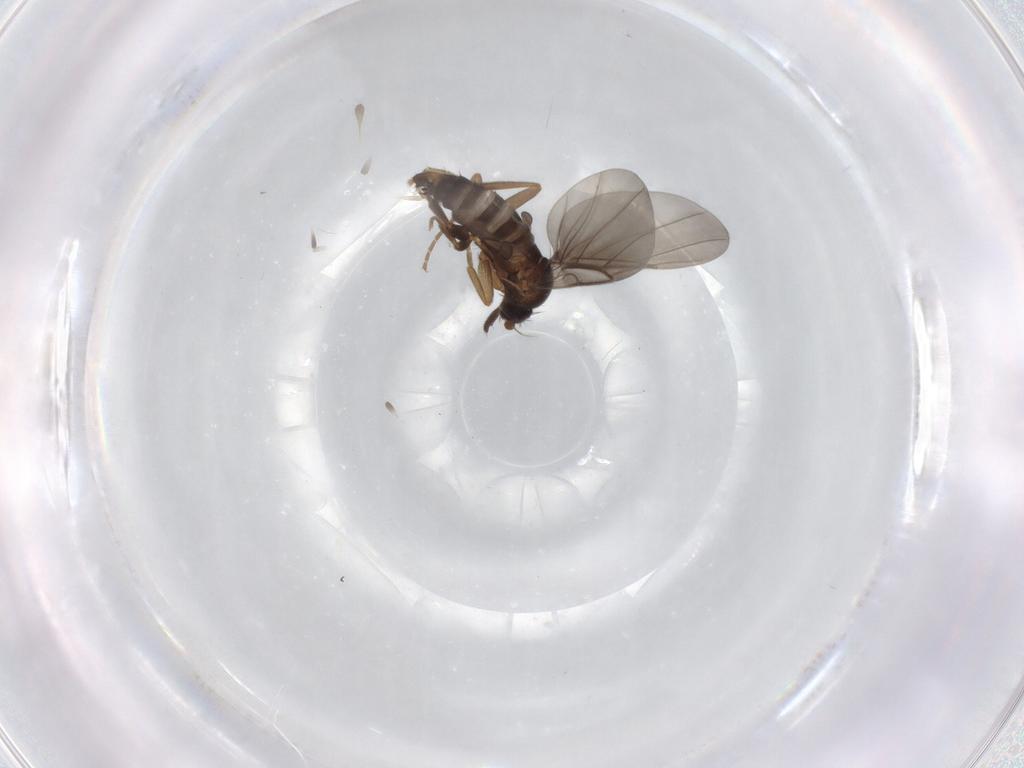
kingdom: Animalia
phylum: Arthropoda
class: Insecta
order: Diptera
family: Phoridae
